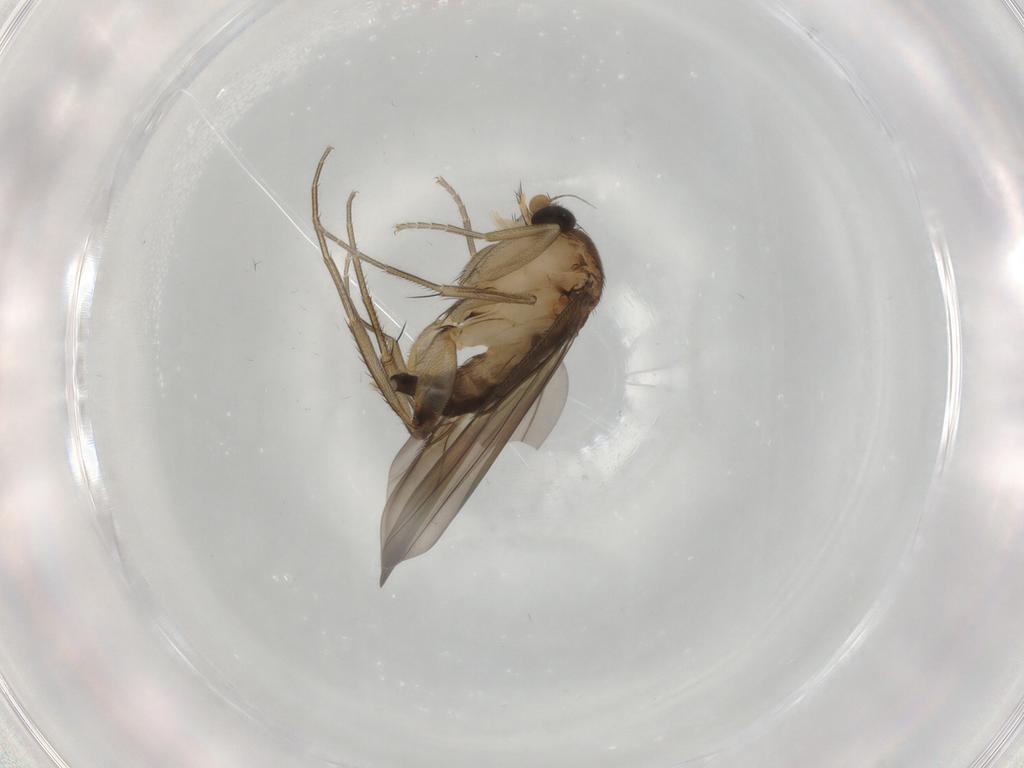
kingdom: Animalia
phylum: Arthropoda
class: Insecta
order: Diptera
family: Phoridae
